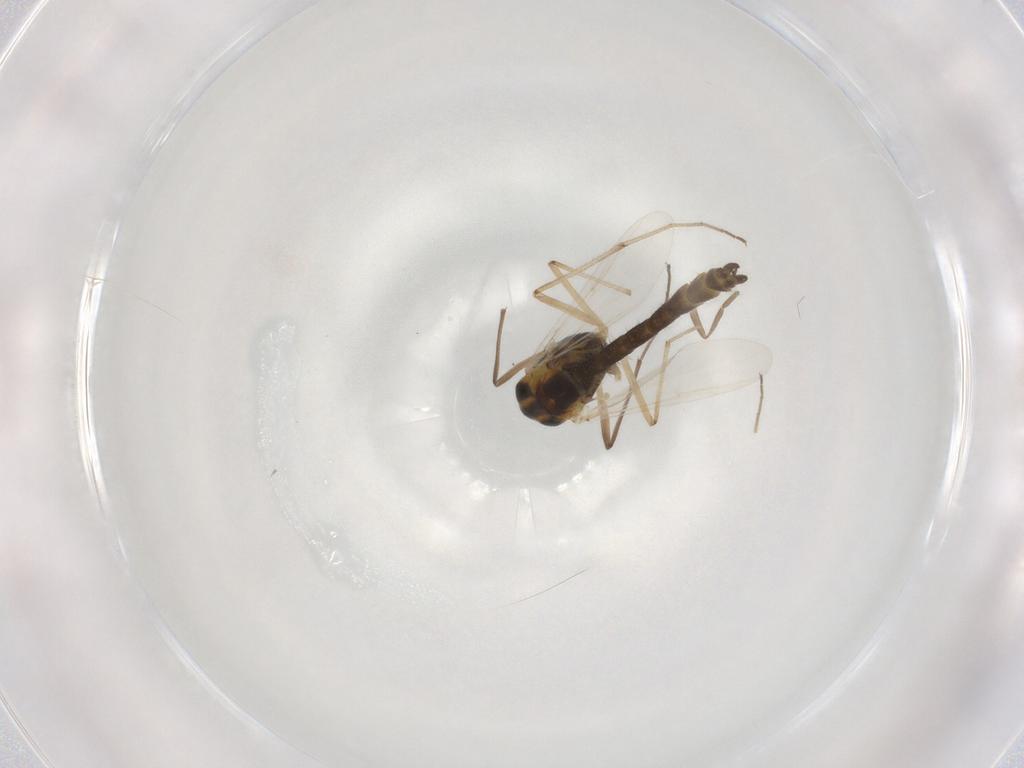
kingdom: Animalia
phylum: Arthropoda
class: Insecta
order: Diptera
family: Chironomidae
